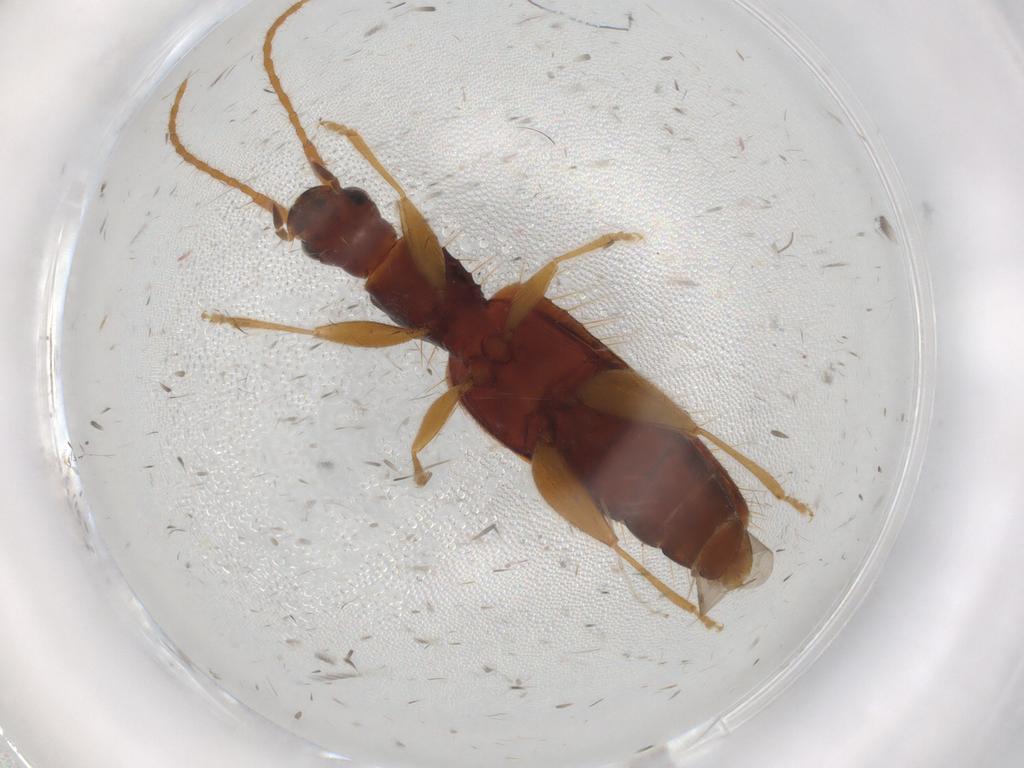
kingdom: Animalia
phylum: Arthropoda
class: Insecta
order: Coleoptera
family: Silvanidae
